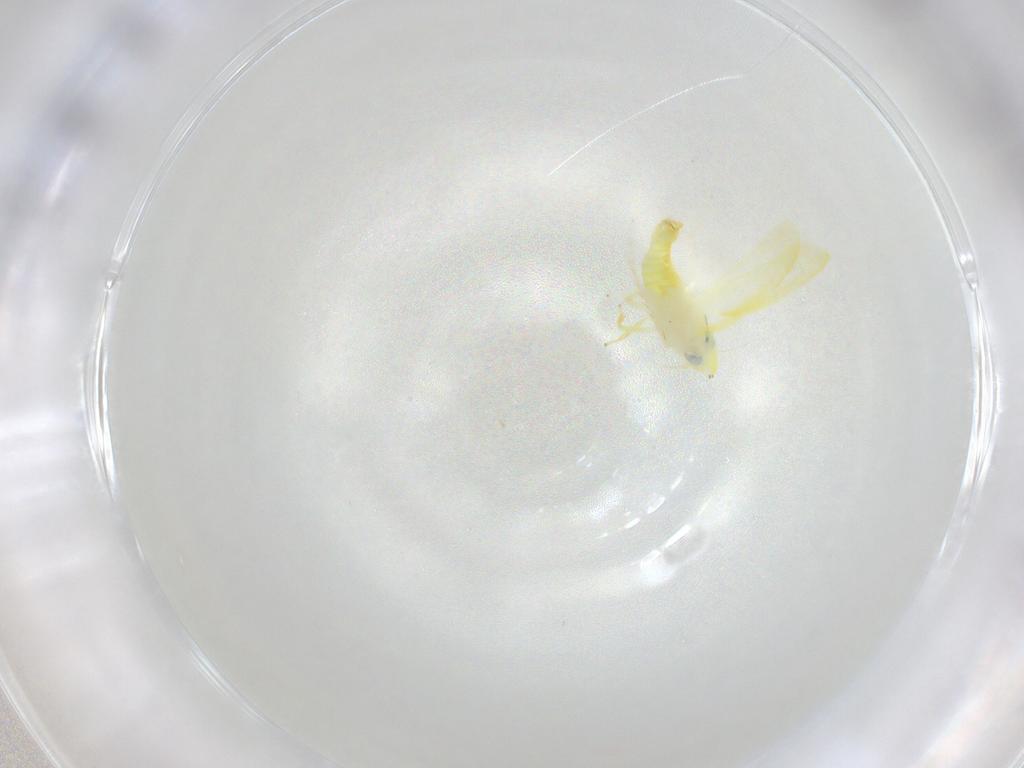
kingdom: Animalia
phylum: Arthropoda
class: Insecta
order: Hemiptera
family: Cicadellidae
